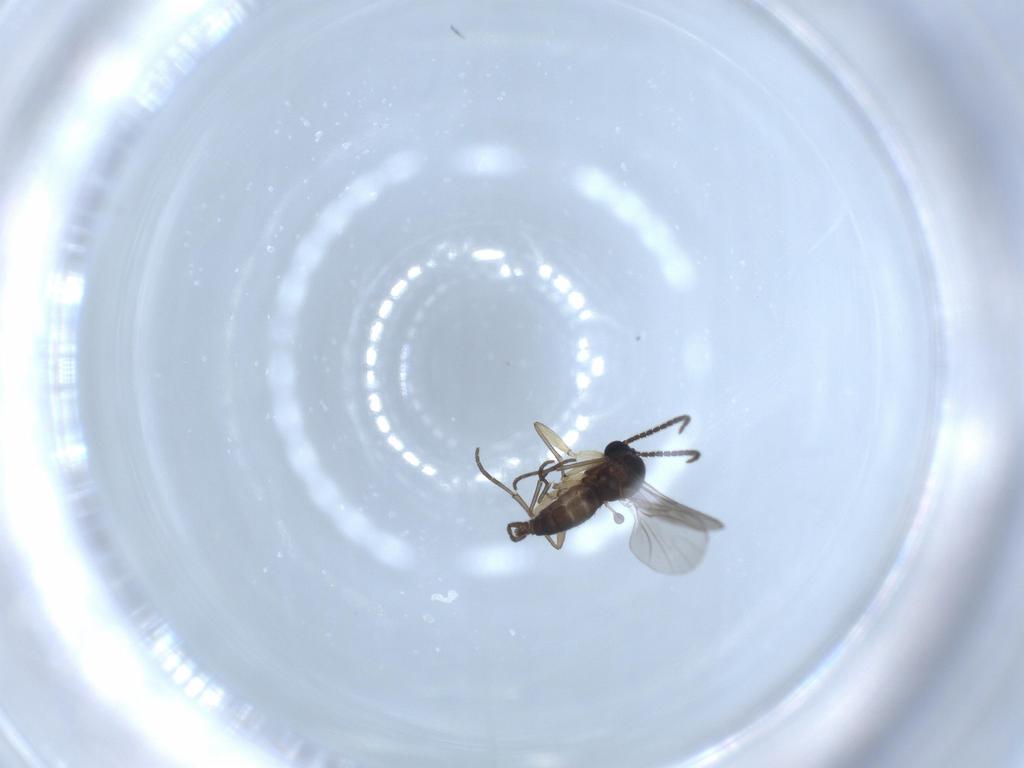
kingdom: Animalia
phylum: Arthropoda
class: Insecta
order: Diptera
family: Sciaridae
